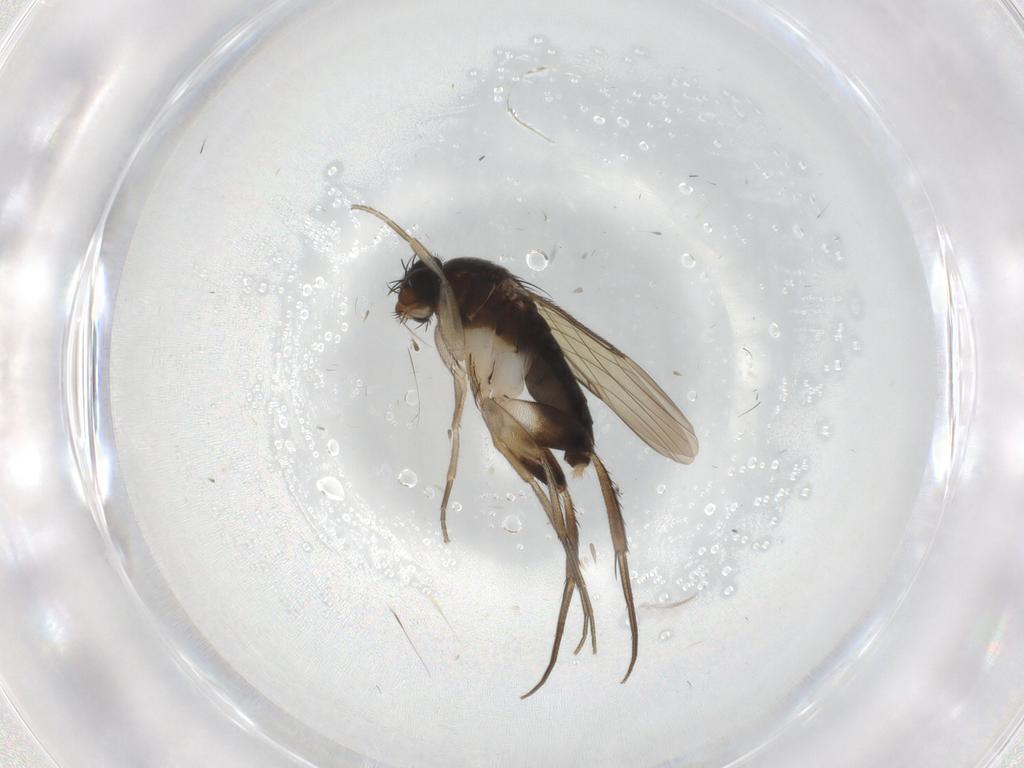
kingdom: Animalia
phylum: Arthropoda
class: Insecta
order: Diptera
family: Phoridae
